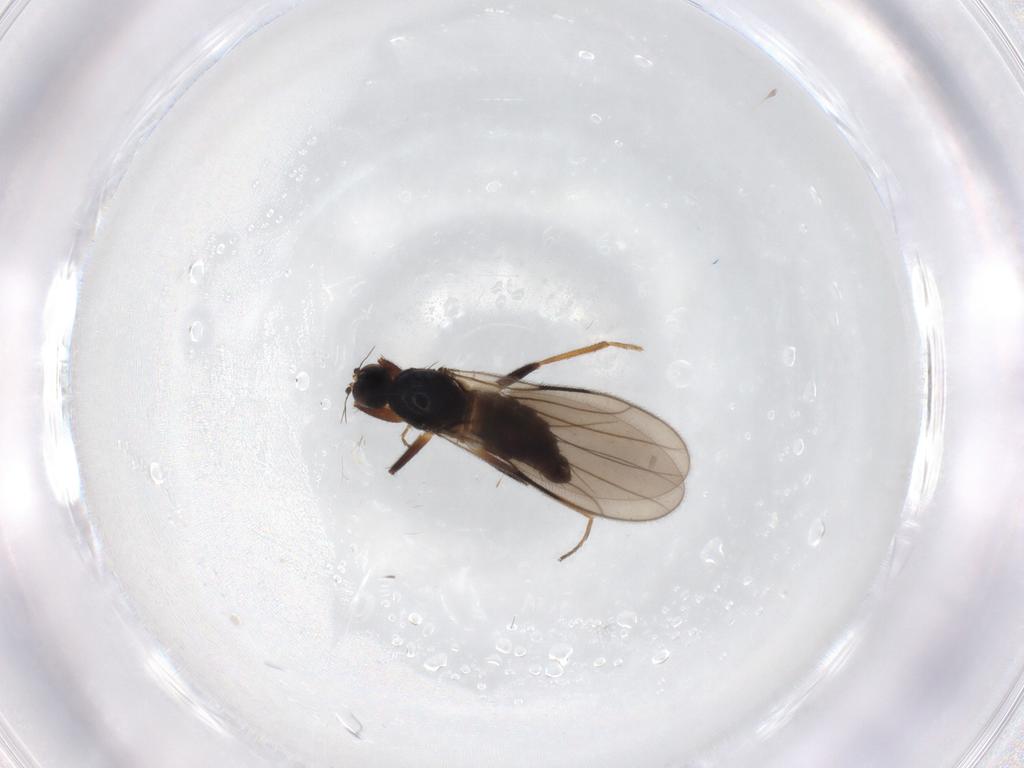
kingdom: Animalia
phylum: Arthropoda
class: Insecta
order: Diptera
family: Hybotidae
